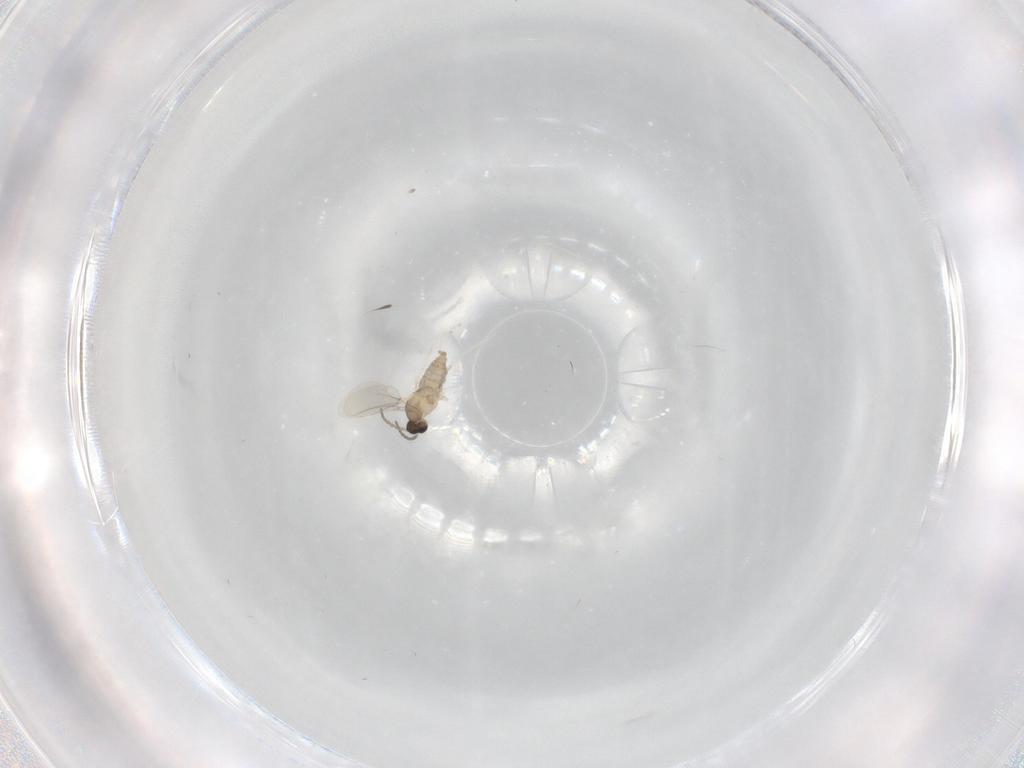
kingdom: Animalia
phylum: Arthropoda
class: Insecta
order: Diptera
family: Cecidomyiidae
